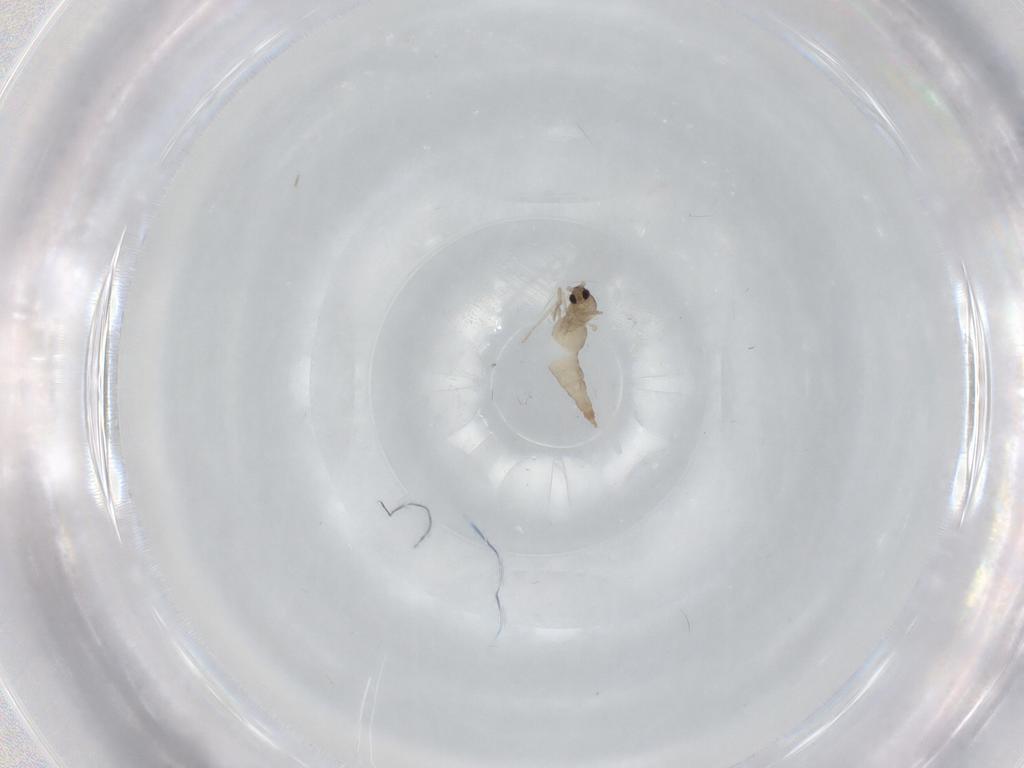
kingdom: Animalia
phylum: Arthropoda
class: Insecta
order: Diptera
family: Cecidomyiidae
